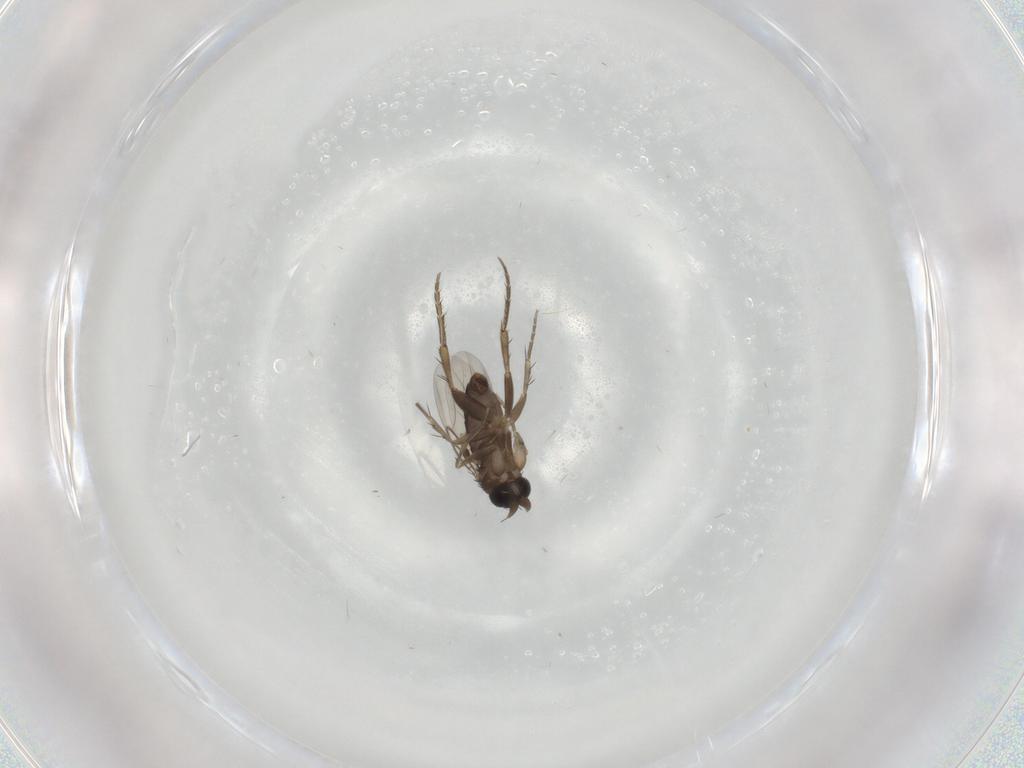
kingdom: Animalia
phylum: Arthropoda
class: Insecta
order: Diptera
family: Phoridae
